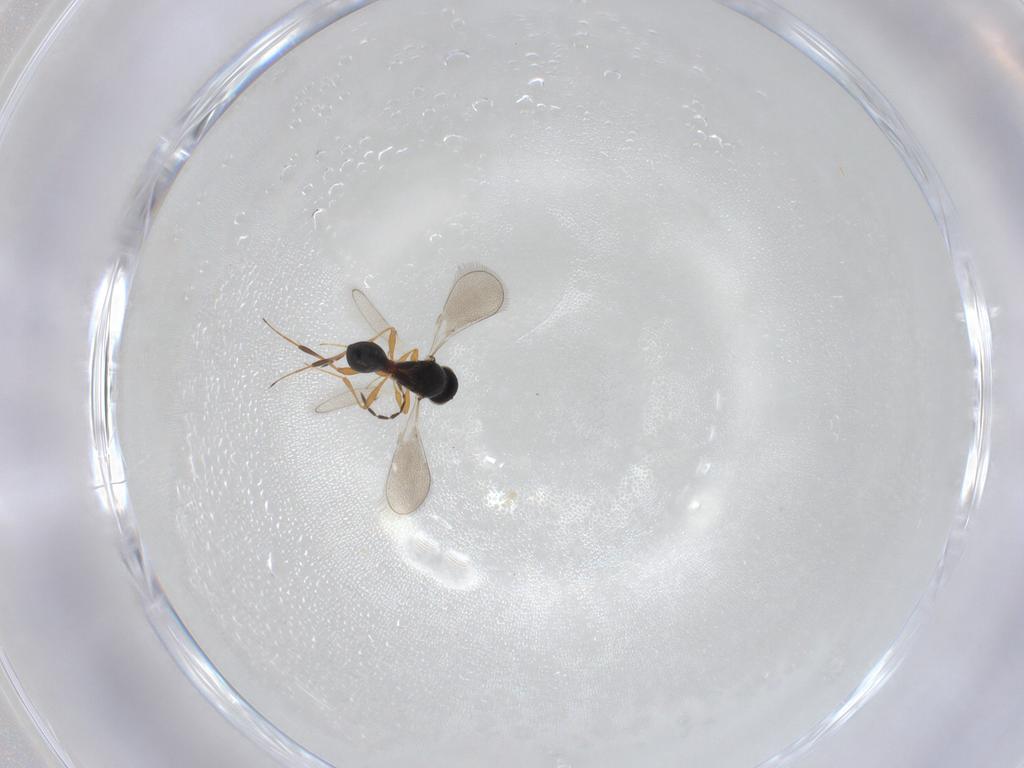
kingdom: Animalia
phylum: Arthropoda
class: Insecta
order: Hymenoptera
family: Platygastridae
